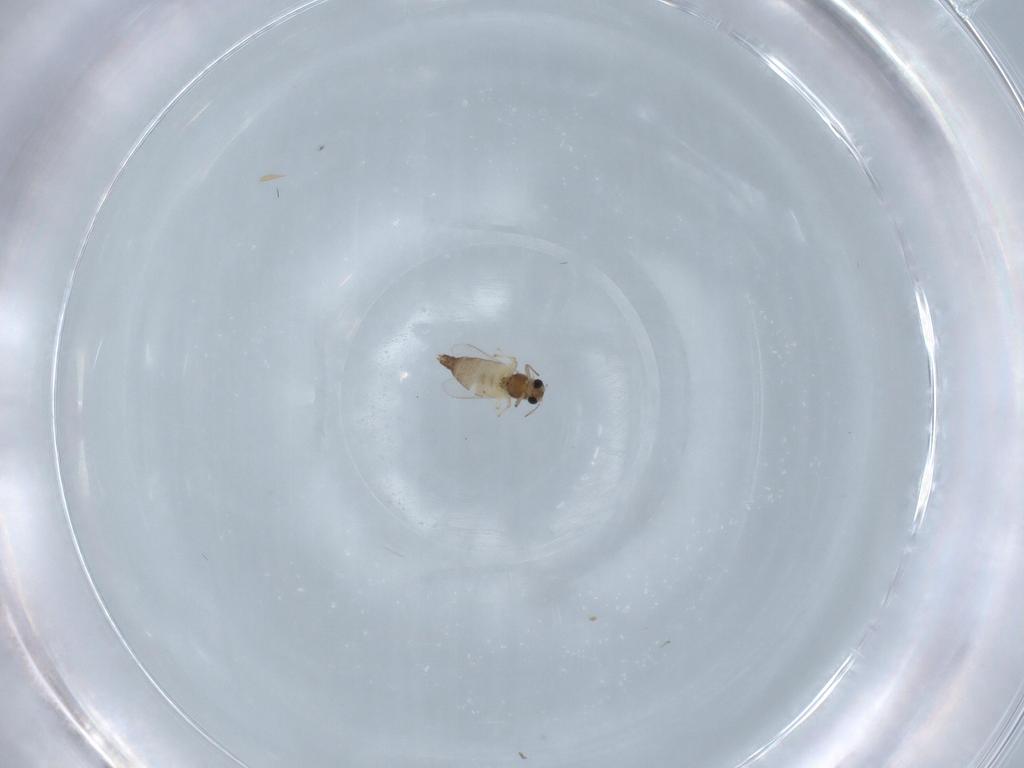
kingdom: Animalia
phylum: Arthropoda
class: Insecta
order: Diptera
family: Chironomidae
